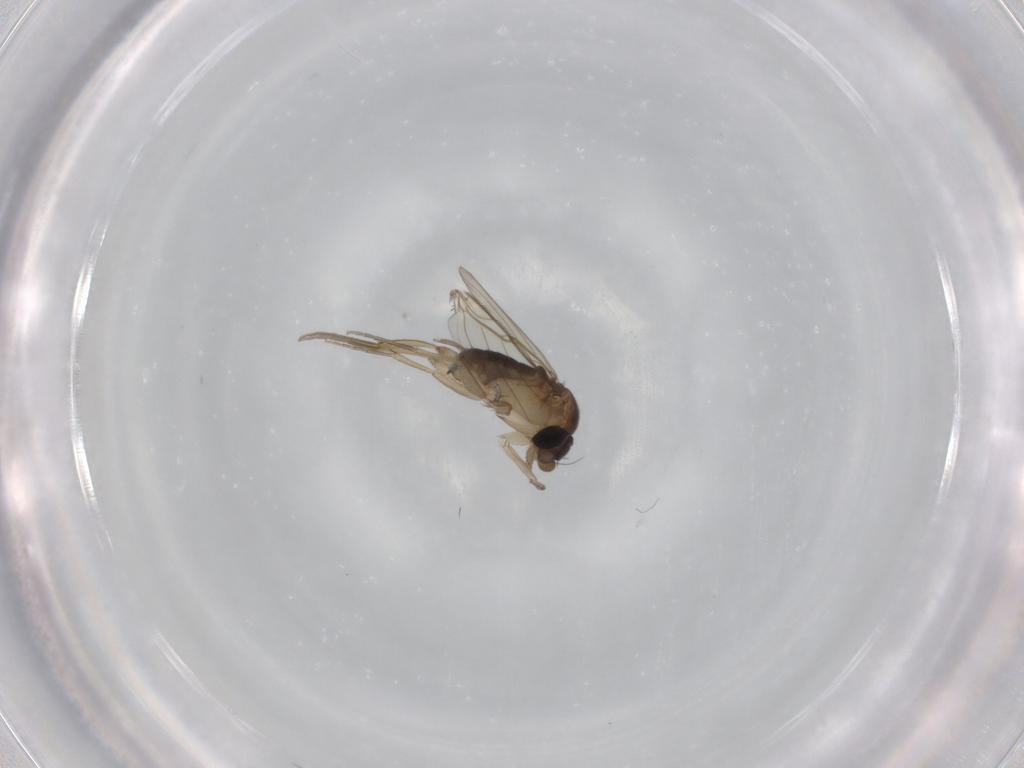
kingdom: Animalia
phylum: Arthropoda
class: Insecta
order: Diptera
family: Phoridae
